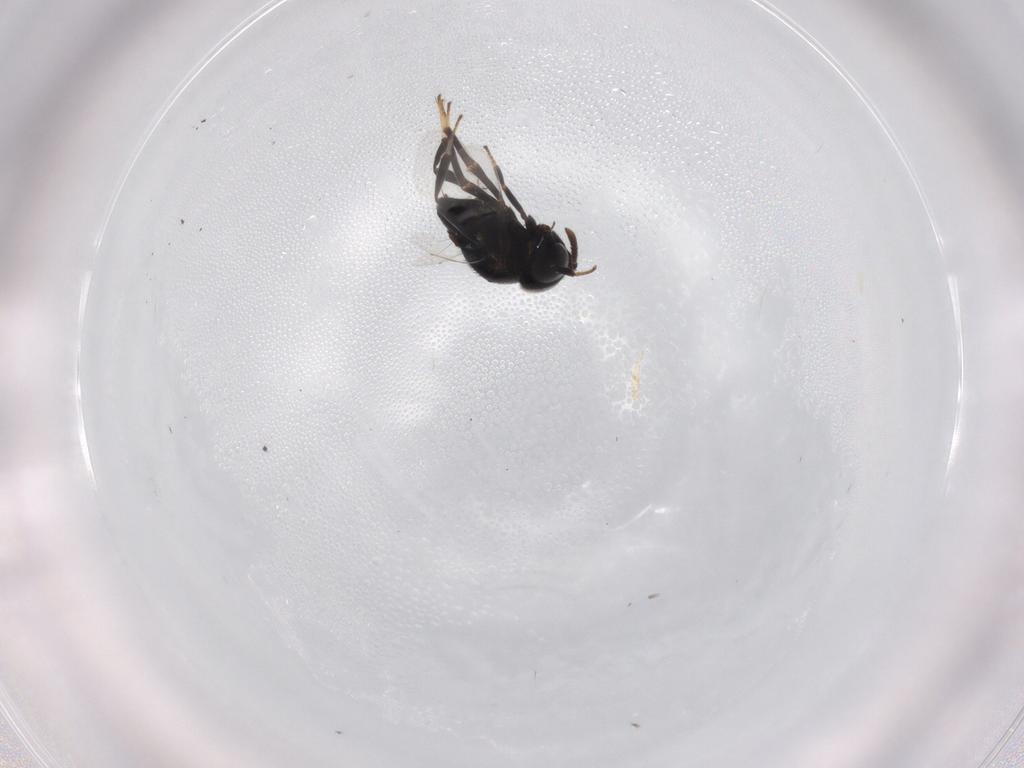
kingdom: Animalia
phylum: Arthropoda
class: Insecta
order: Hymenoptera
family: Encyrtidae
